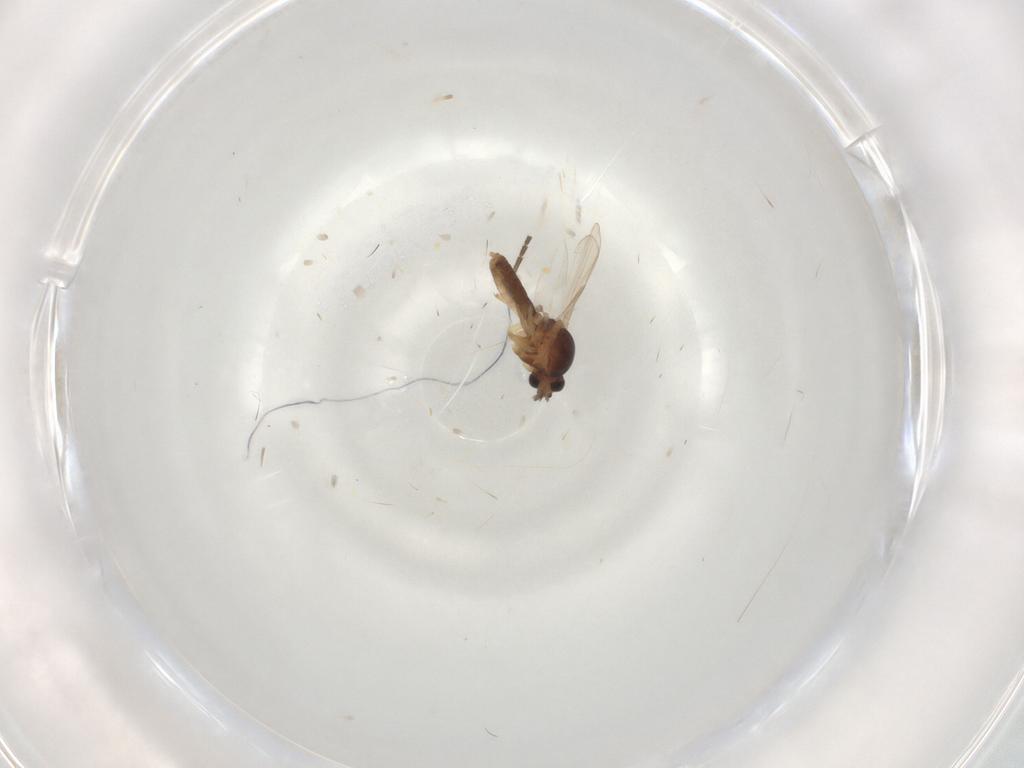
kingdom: Animalia
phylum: Arthropoda
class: Insecta
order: Diptera
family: Ceratopogonidae
